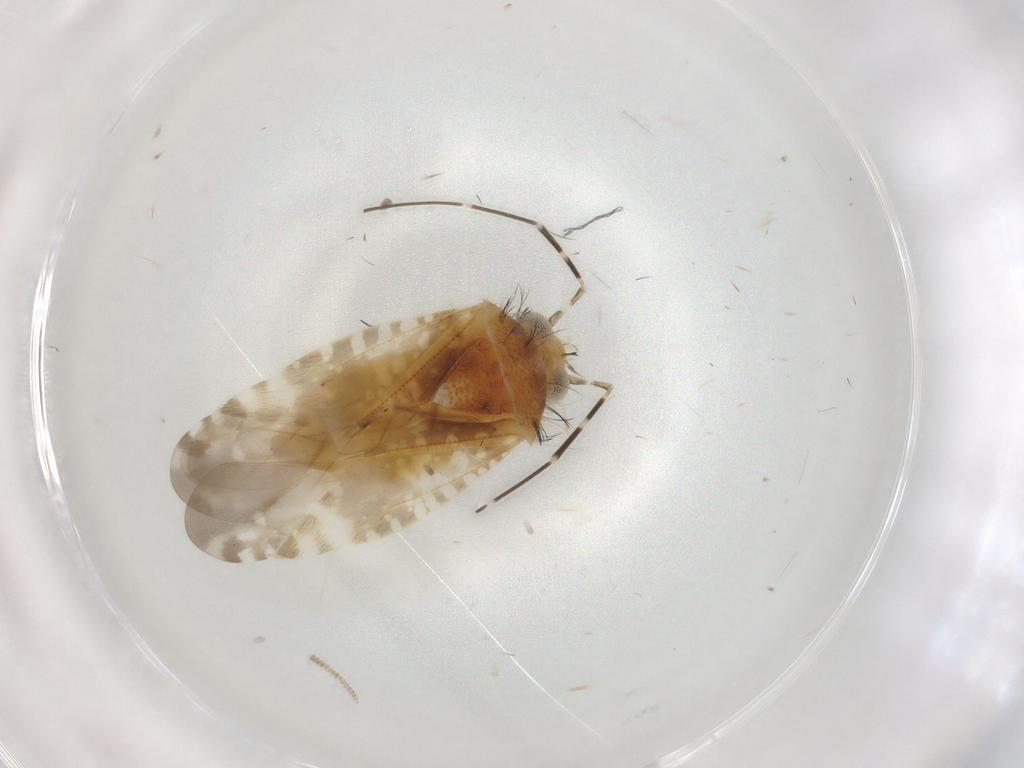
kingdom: Animalia
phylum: Arthropoda
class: Insecta
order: Hemiptera
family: Miridae
